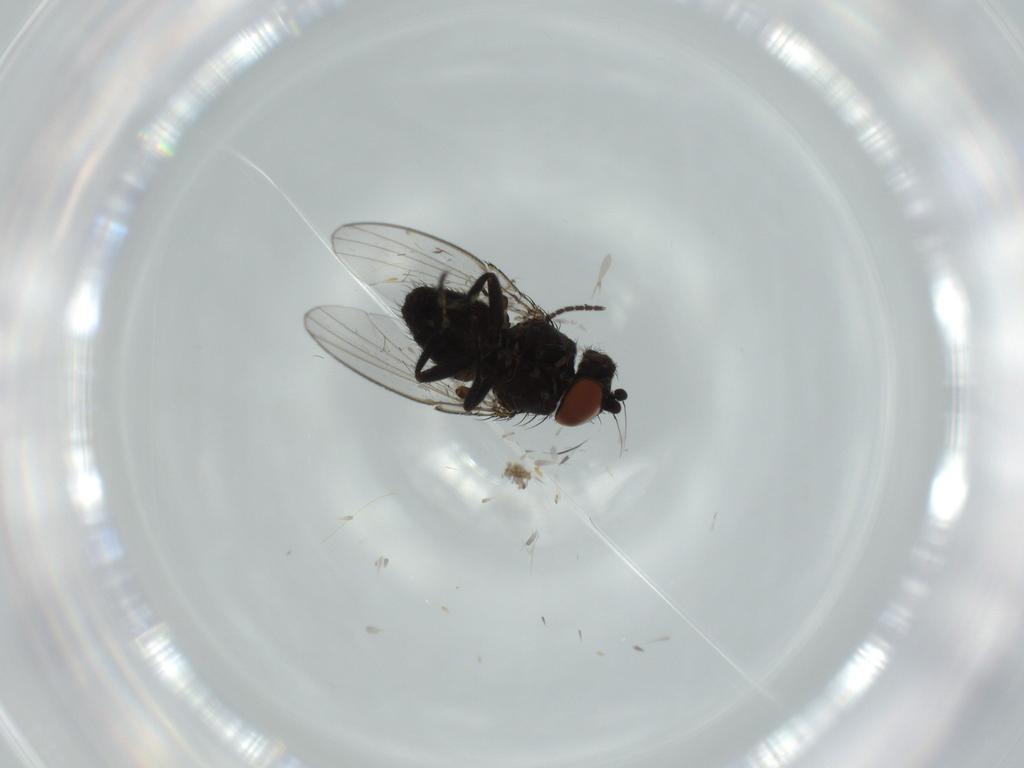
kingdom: Animalia
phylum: Arthropoda
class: Insecta
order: Diptera
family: Milichiidae
